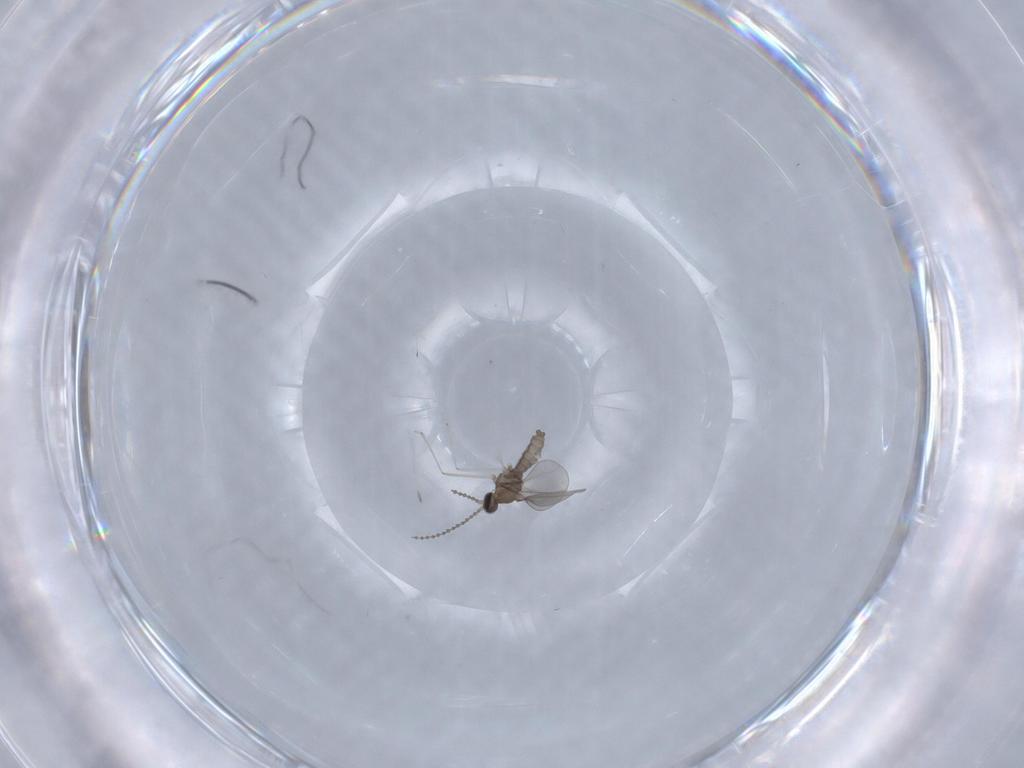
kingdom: Animalia
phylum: Arthropoda
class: Insecta
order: Diptera
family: Cecidomyiidae
